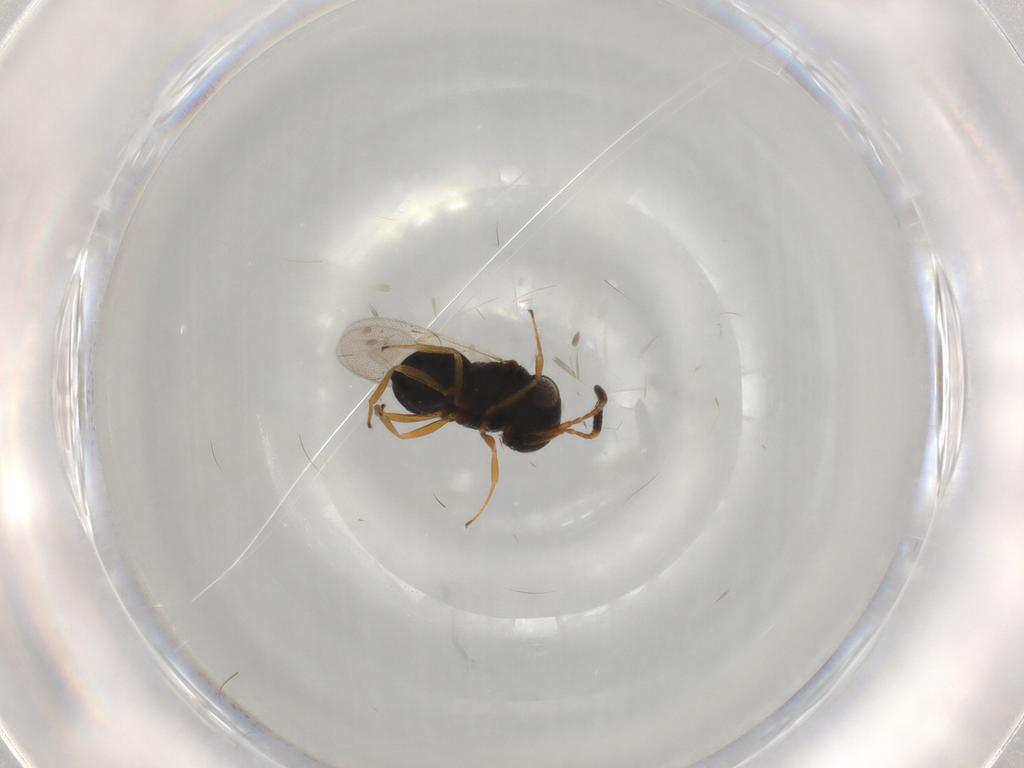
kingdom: Animalia
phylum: Arthropoda
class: Insecta
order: Hymenoptera
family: Scelionidae
